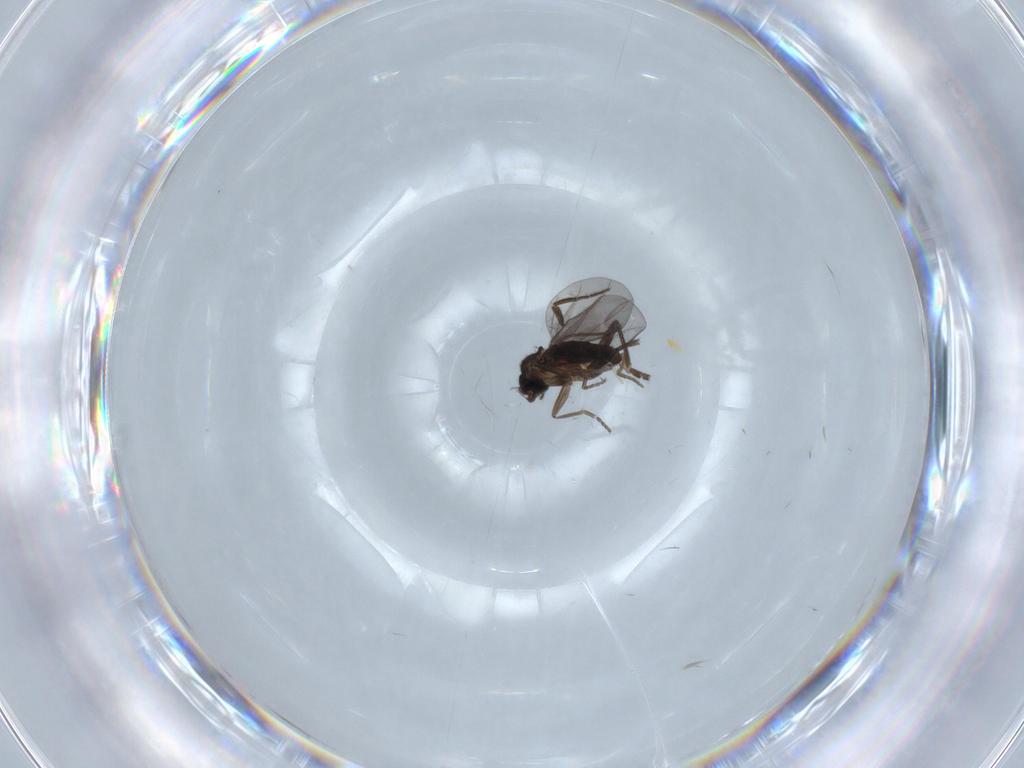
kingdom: Animalia
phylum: Arthropoda
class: Insecta
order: Diptera
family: Phoridae
